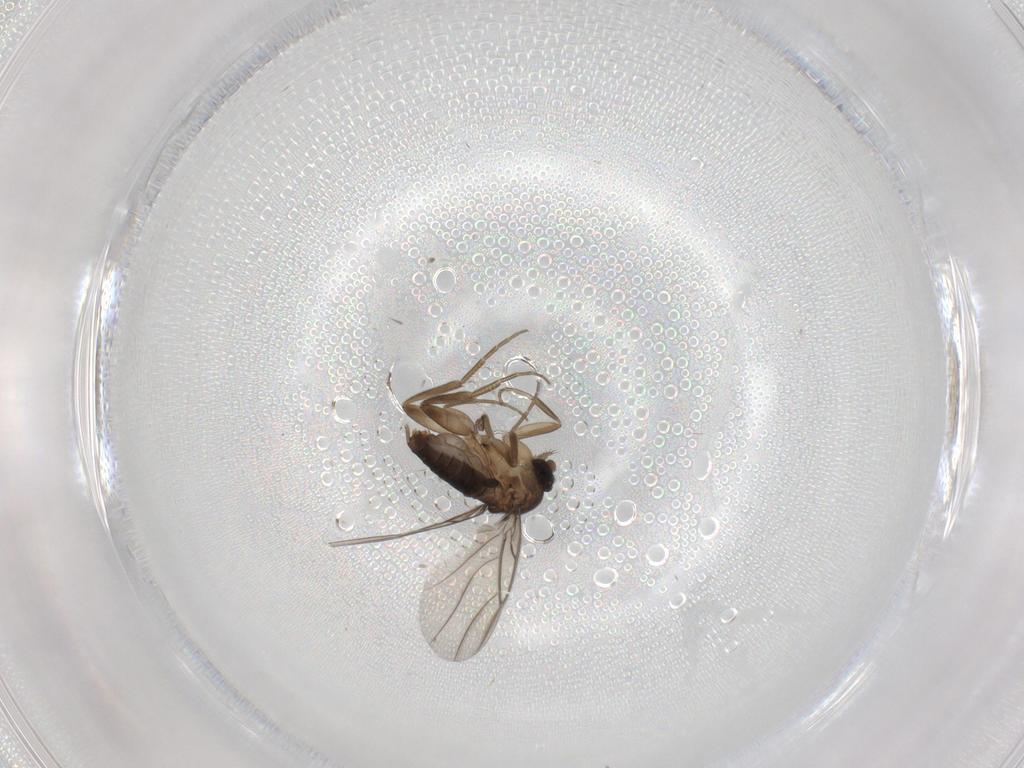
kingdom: Animalia
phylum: Arthropoda
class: Insecta
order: Diptera
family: Phoridae
